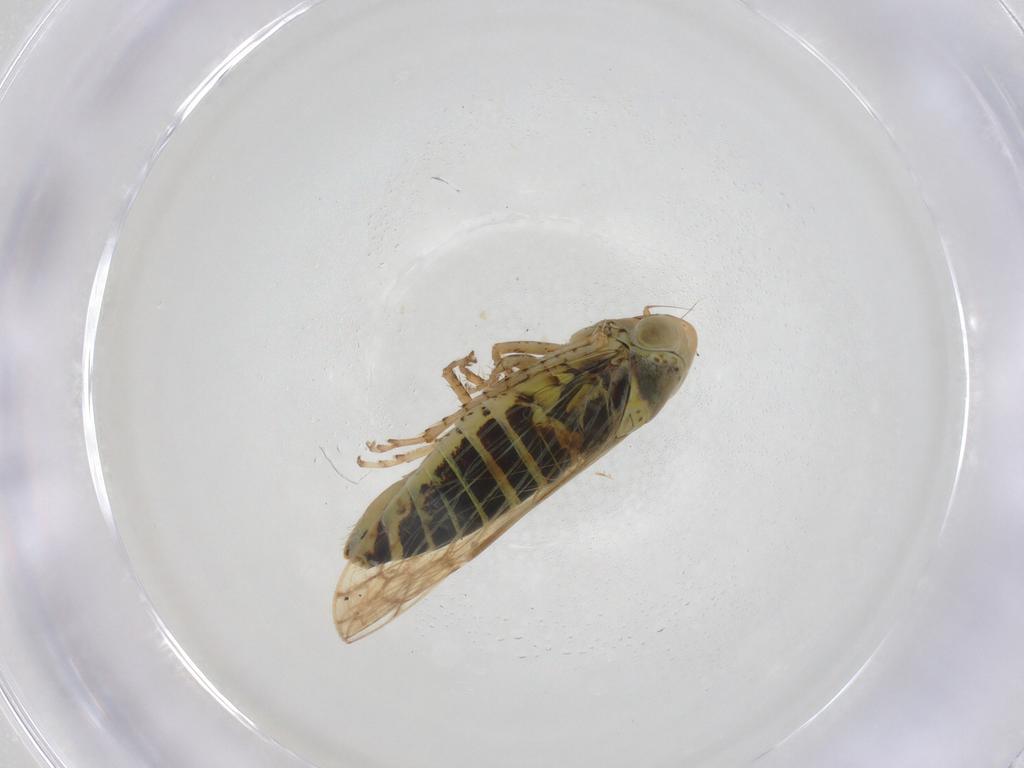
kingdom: Animalia
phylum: Arthropoda
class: Insecta
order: Hemiptera
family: Cicadellidae
